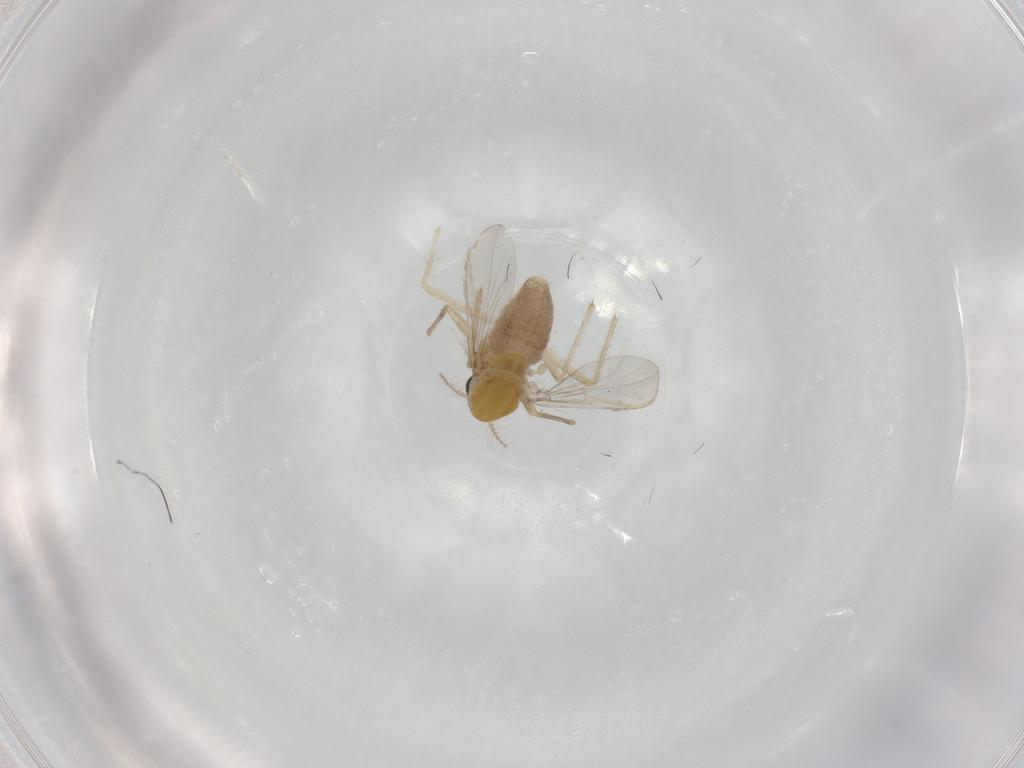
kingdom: Animalia
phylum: Arthropoda
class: Insecta
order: Diptera
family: Chironomidae
